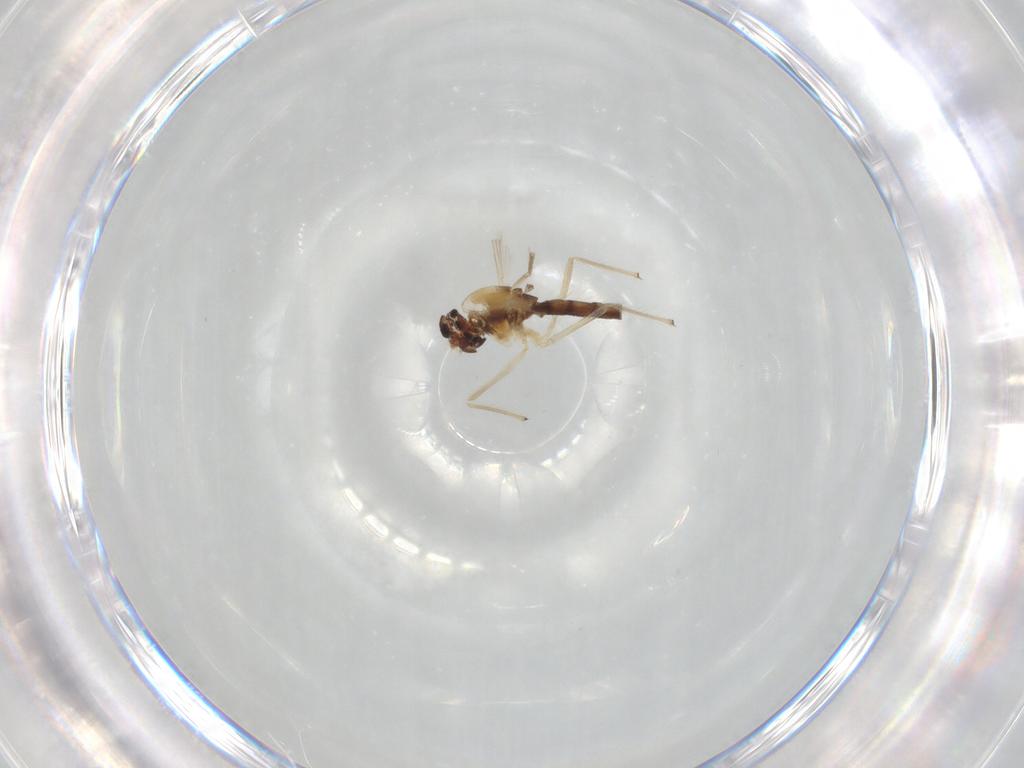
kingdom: Animalia
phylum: Arthropoda
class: Insecta
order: Diptera
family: Chironomidae
